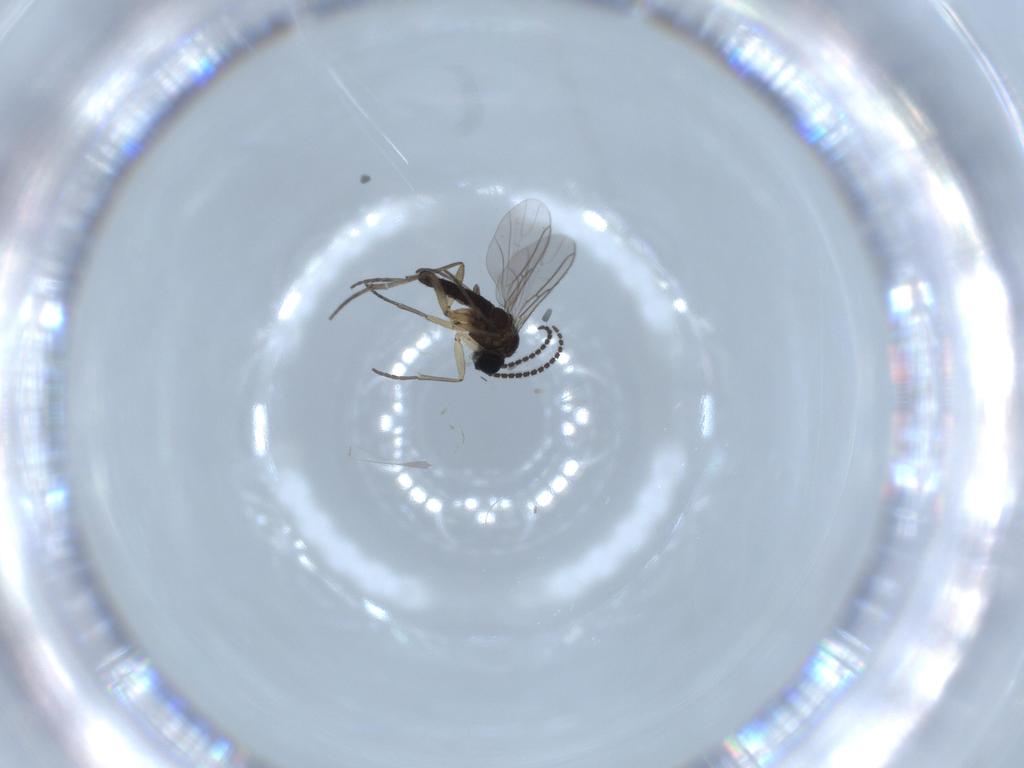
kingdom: Animalia
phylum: Arthropoda
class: Insecta
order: Diptera
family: Sciaridae
